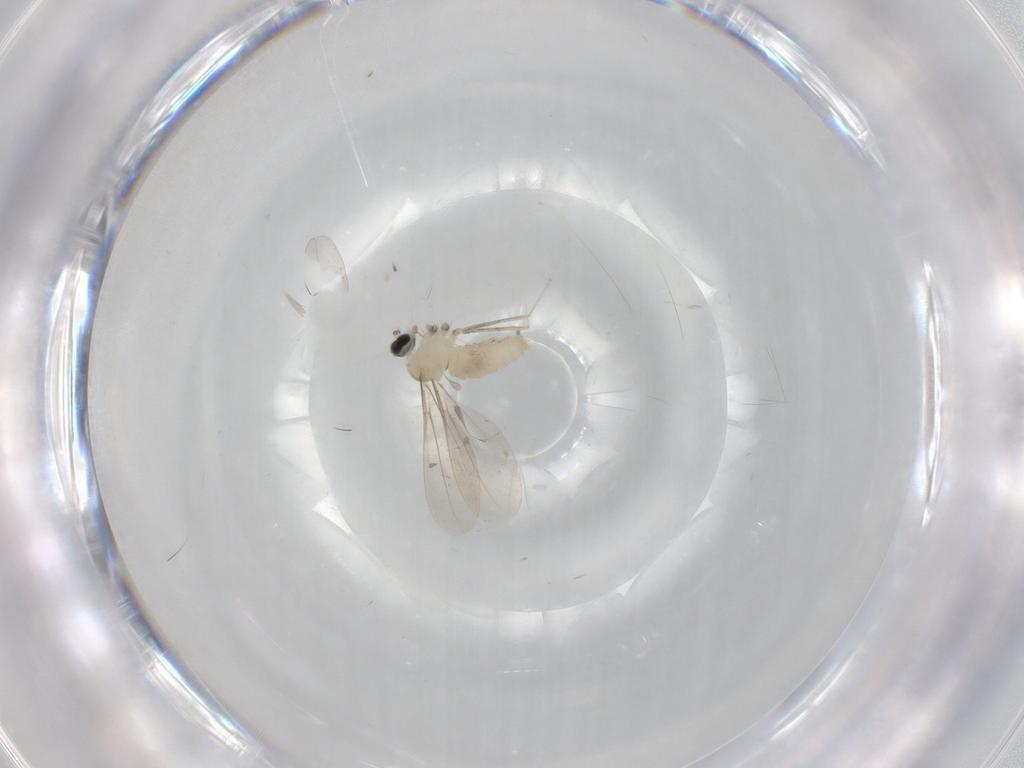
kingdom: Animalia
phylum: Arthropoda
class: Insecta
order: Diptera
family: Cecidomyiidae
